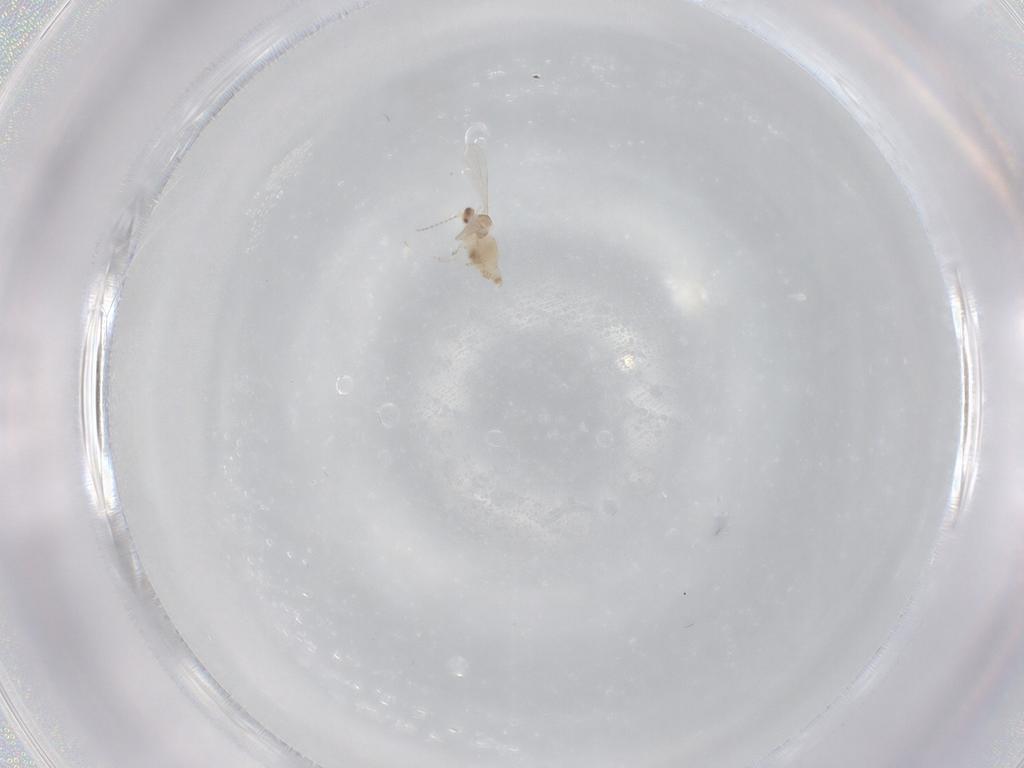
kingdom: Animalia
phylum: Arthropoda
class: Insecta
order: Diptera
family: Cecidomyiidae
